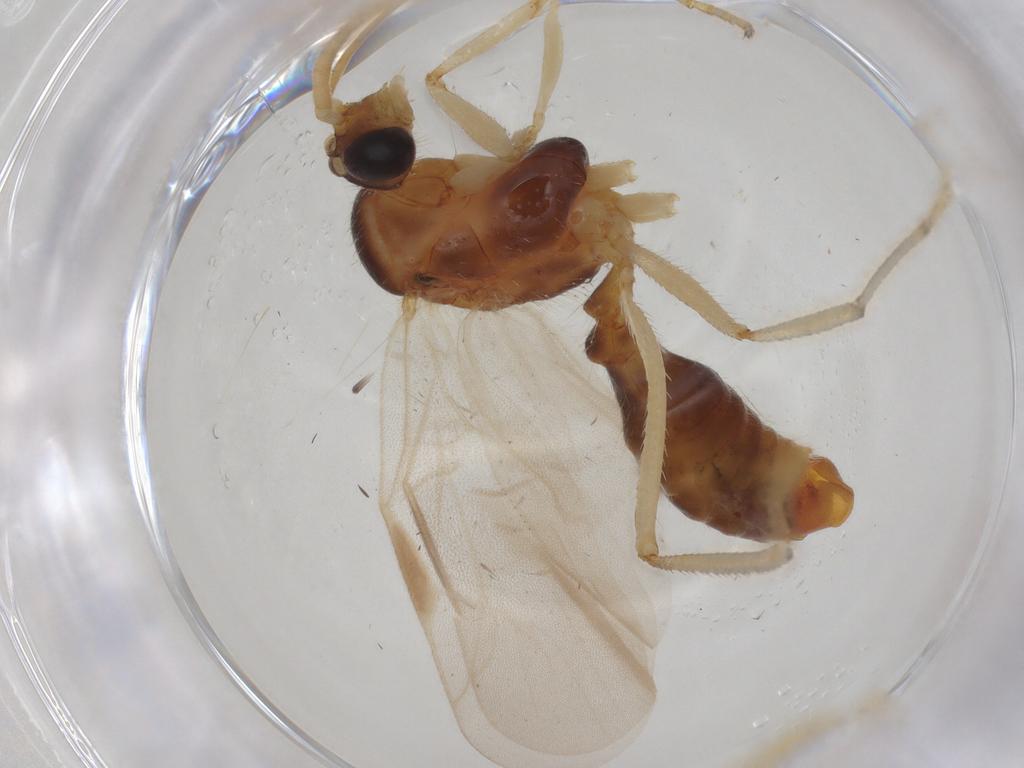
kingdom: Animalia
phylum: Arthropoda
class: Insecta
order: Hymenoptera
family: Formicidae
